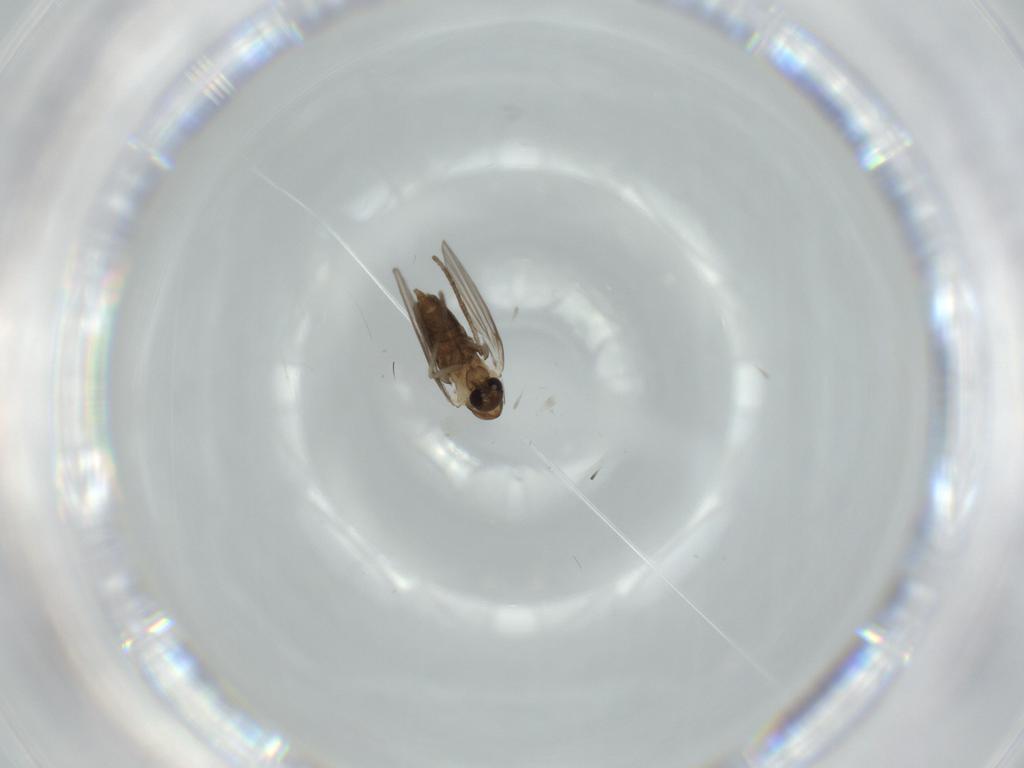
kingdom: Animalia
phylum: Arthropoda
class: Insecta
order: Diptera
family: Psychodidae
